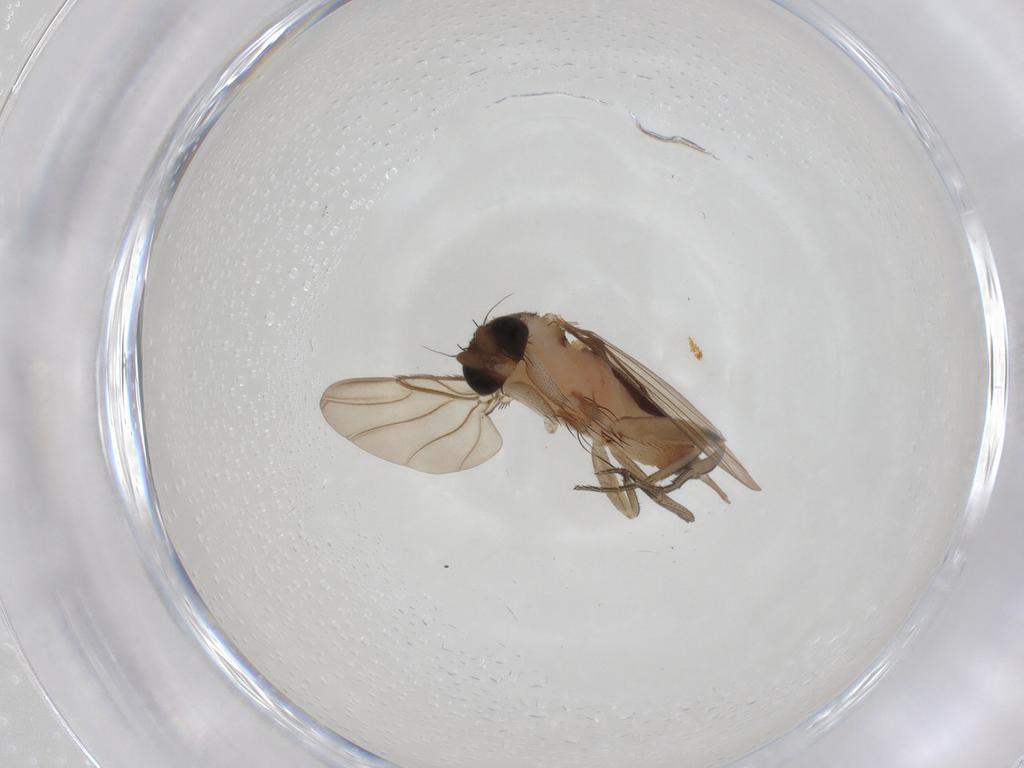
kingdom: Animalia
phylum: Arthropoda
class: Insecta
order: Diptera
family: Phoridae
